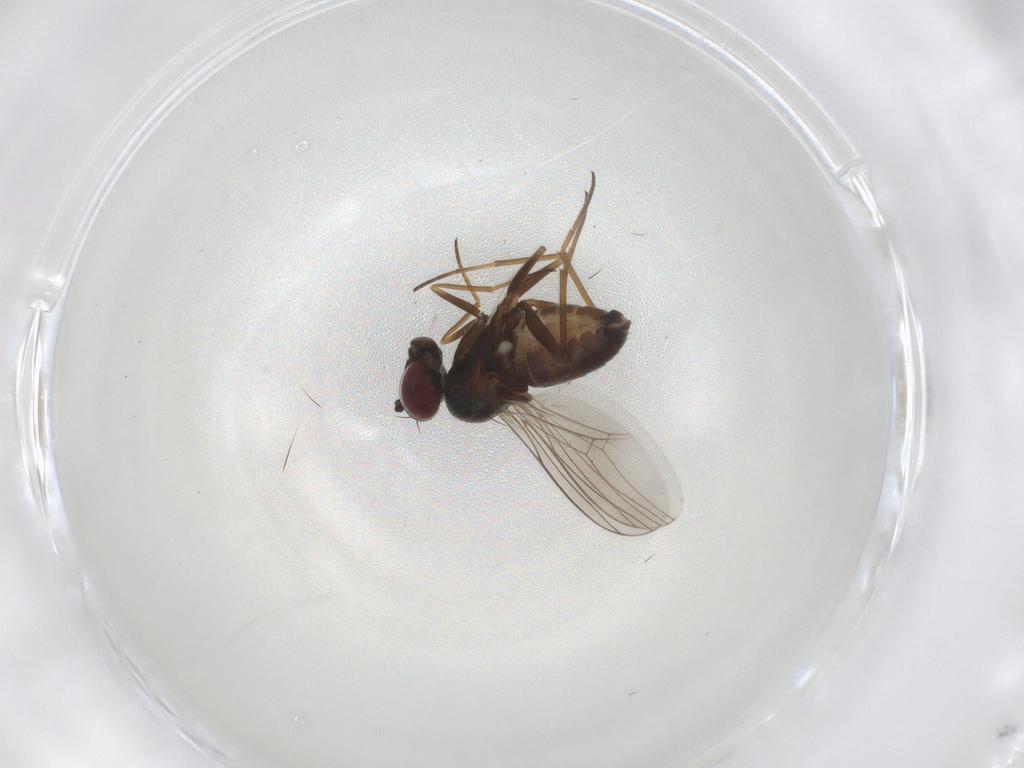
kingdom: Animalia
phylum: Arthropoda
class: Insecta
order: Diptera
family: Dolichopodidae
